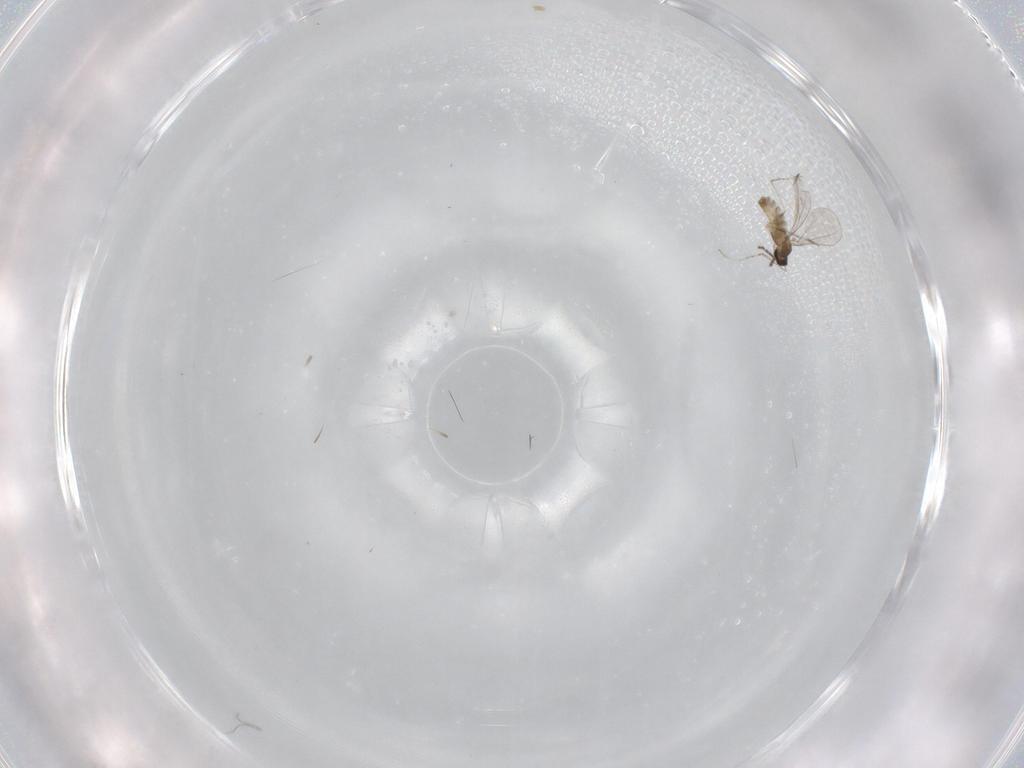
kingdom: Animalia
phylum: Arthropoda
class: Insecta
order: Diptera
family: Cecidomyiidae
